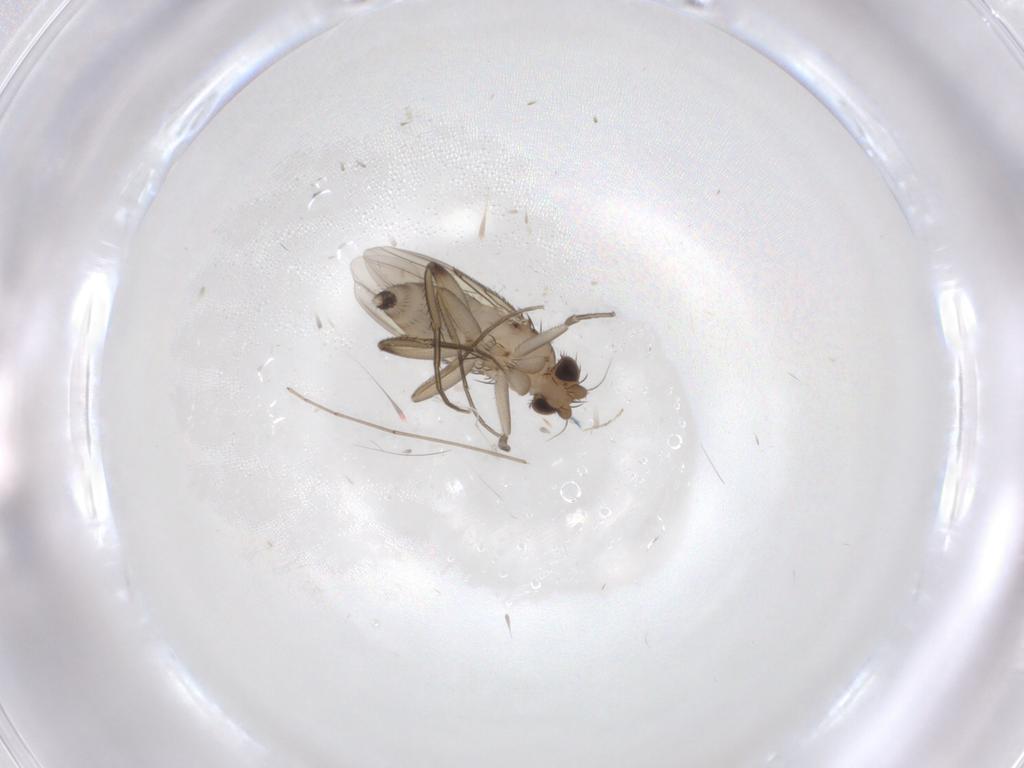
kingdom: Animalia
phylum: Arthropoda
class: Insecta
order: Diptera
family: Cecidomyiidae
